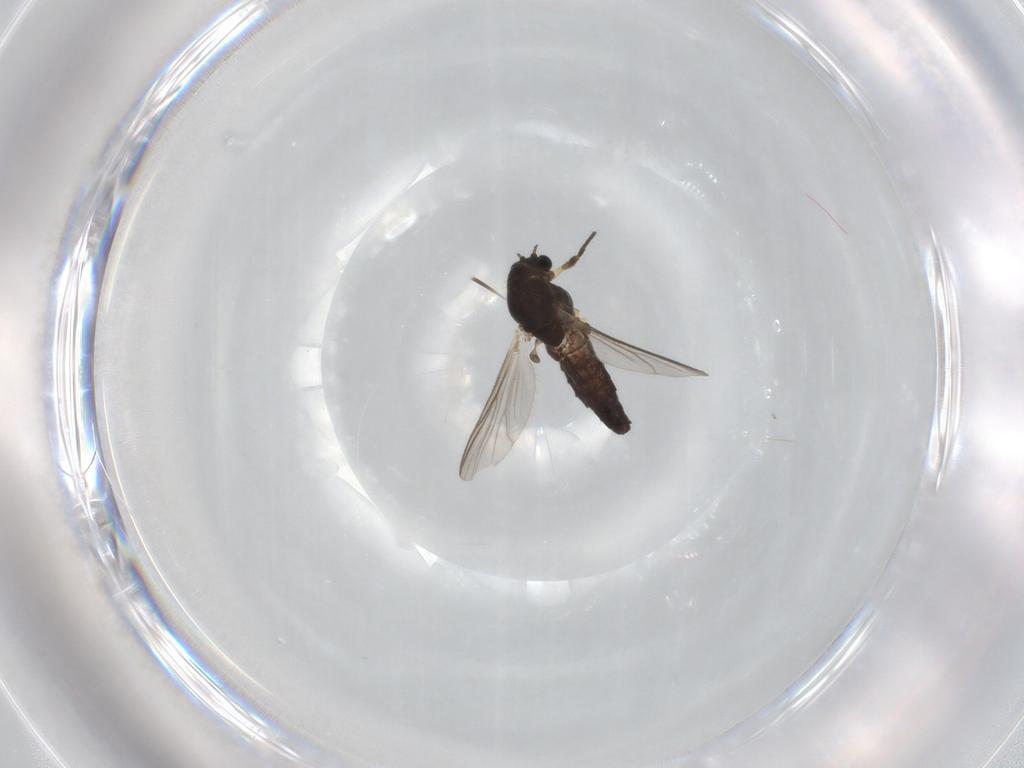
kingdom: Animalia
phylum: Arthropoda
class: Insecta
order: Diptera
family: Chironomidae
